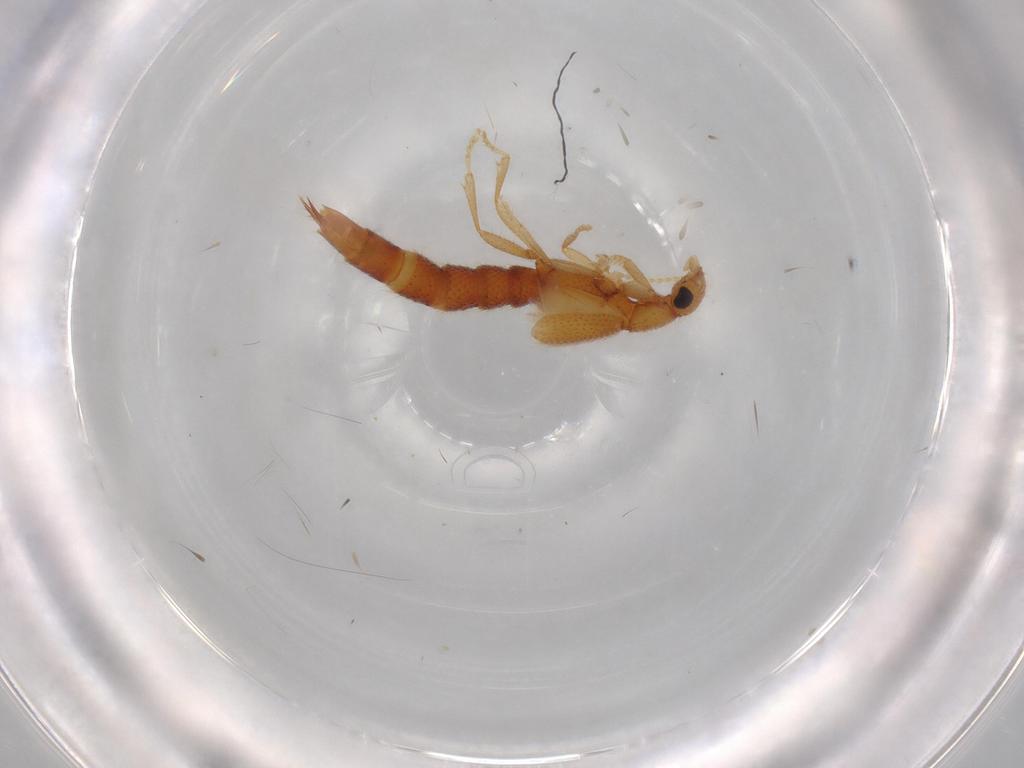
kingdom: Animalia
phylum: Arthropoda
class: Insecta
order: Coleoptera
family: Staphylinidae
